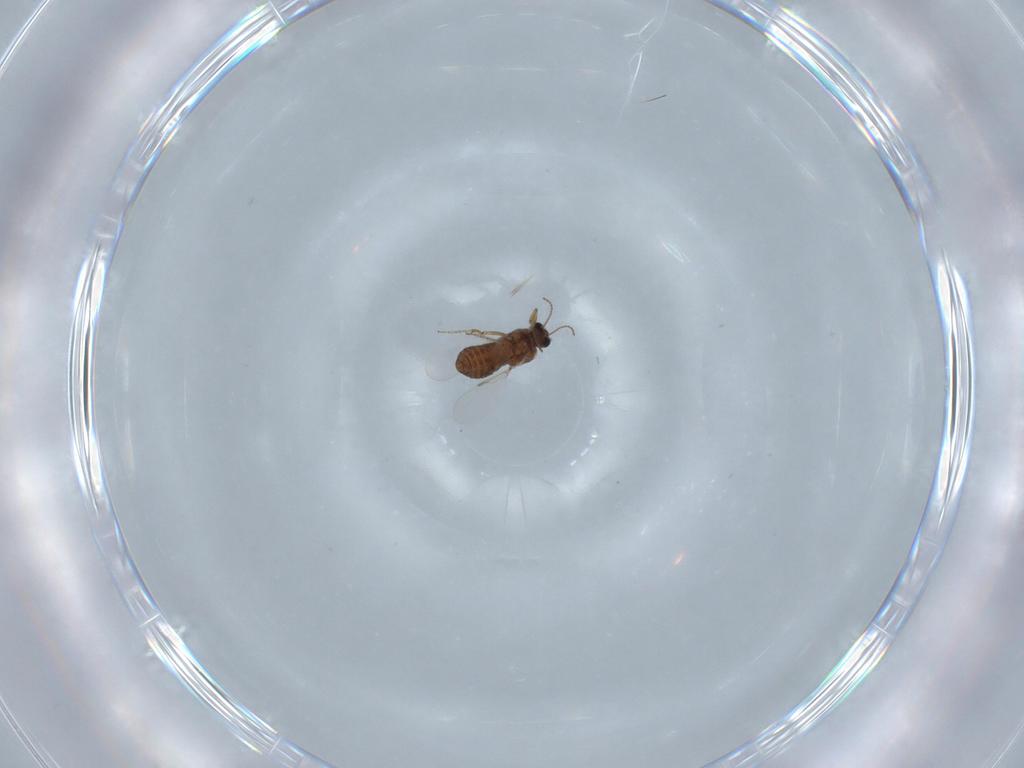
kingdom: Animalia
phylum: Arthropoda
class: Insecta
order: Diptera
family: Ceratopogonidae
